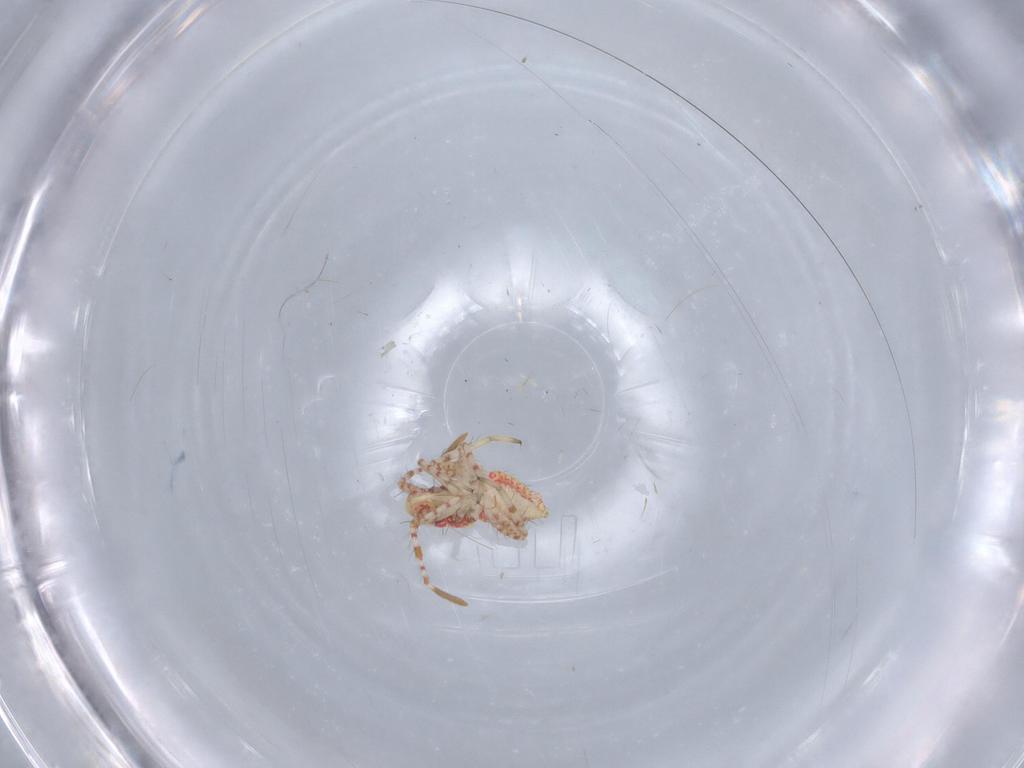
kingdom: Animalia
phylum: Arthropoda
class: Insecta
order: Hemiptera
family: Miridae
